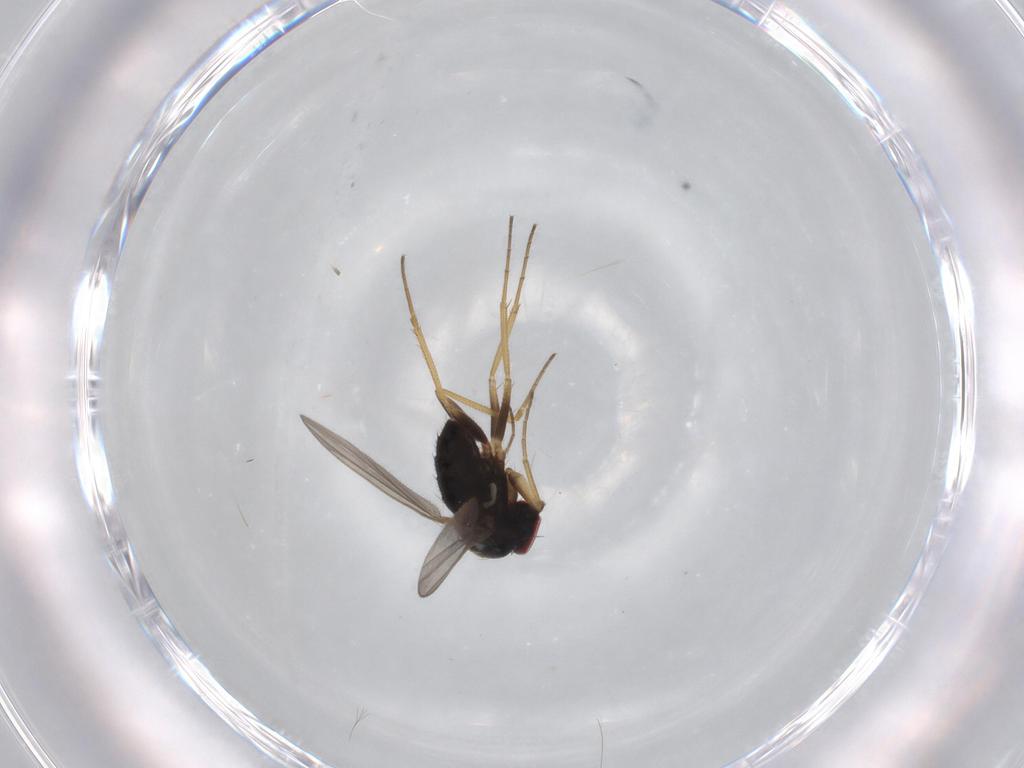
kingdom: Animalia
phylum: Arthropoda
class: Insecta
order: Diptera
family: Dolichopodidae
